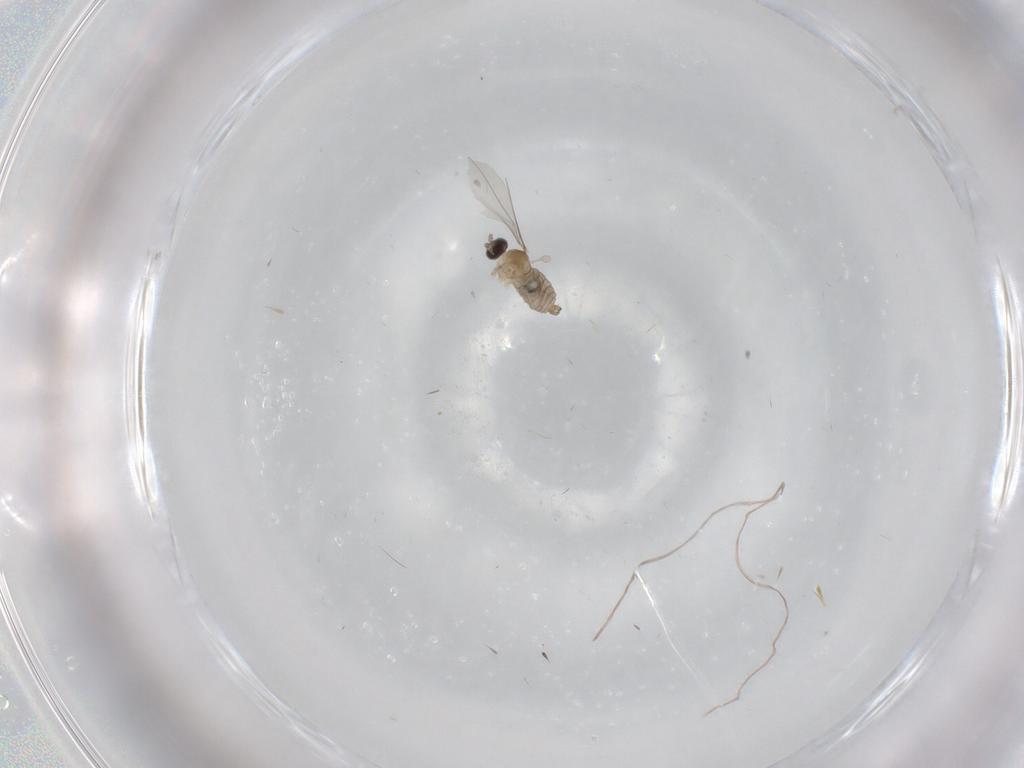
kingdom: Animalia
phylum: Arthropoda
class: Insecta
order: Diptera
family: Cecidomyiidae
